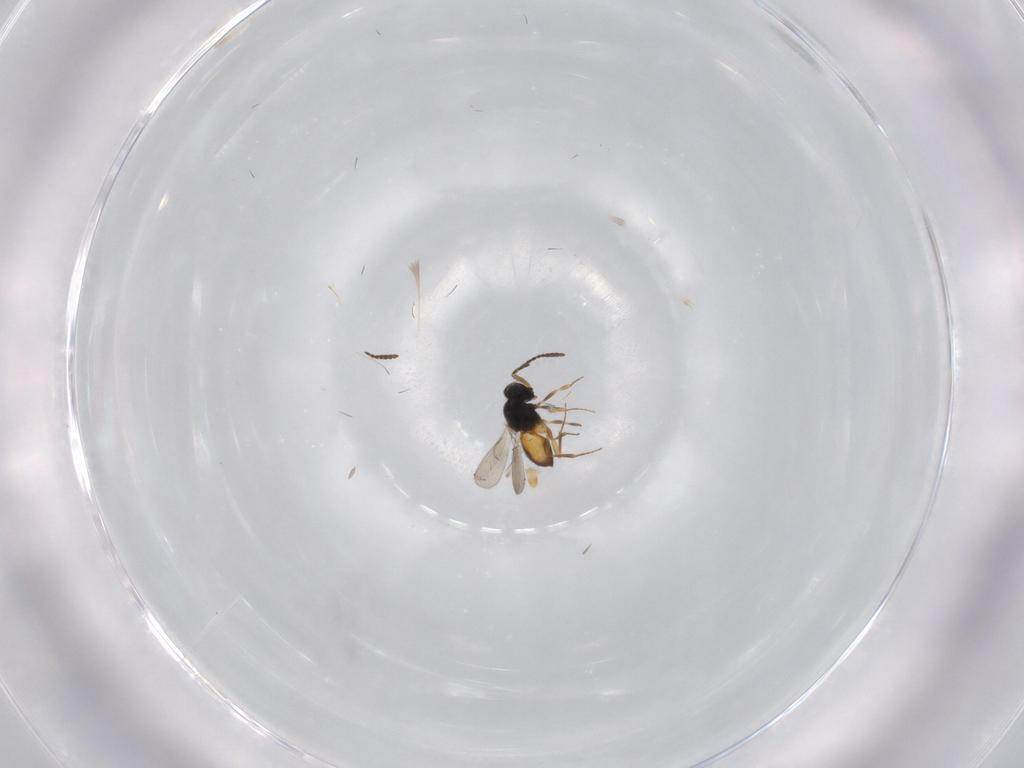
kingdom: Animalia
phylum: Arthropoda
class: Insecta
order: Hymenoptera
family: Scelionidae
